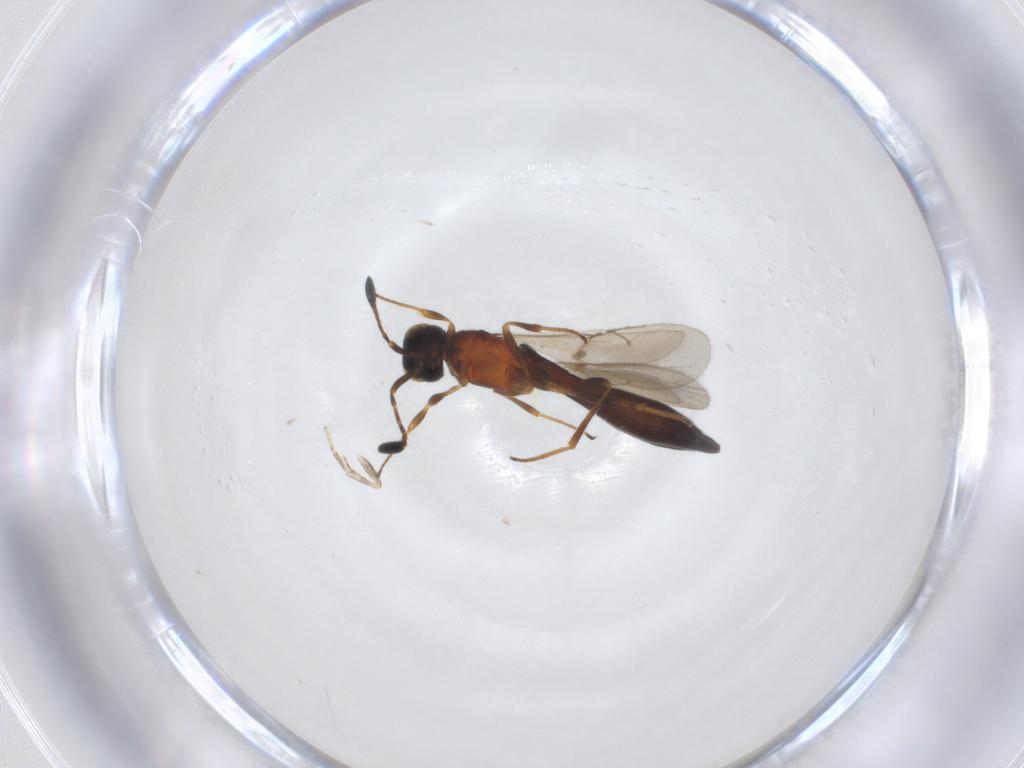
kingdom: Animalia
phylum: Arthropoda
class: Insecta
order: Hymenoptera
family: Scelionidae
